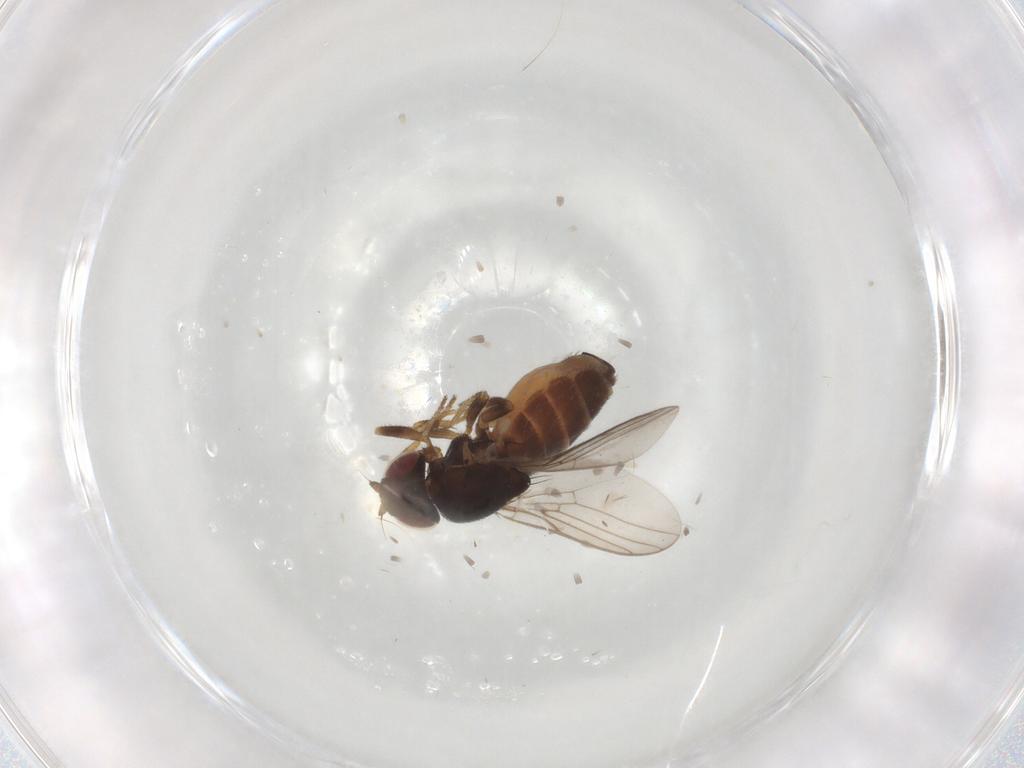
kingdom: Animalia
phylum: Arthropoda
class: Insecta
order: Diptera
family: Chloropidae
